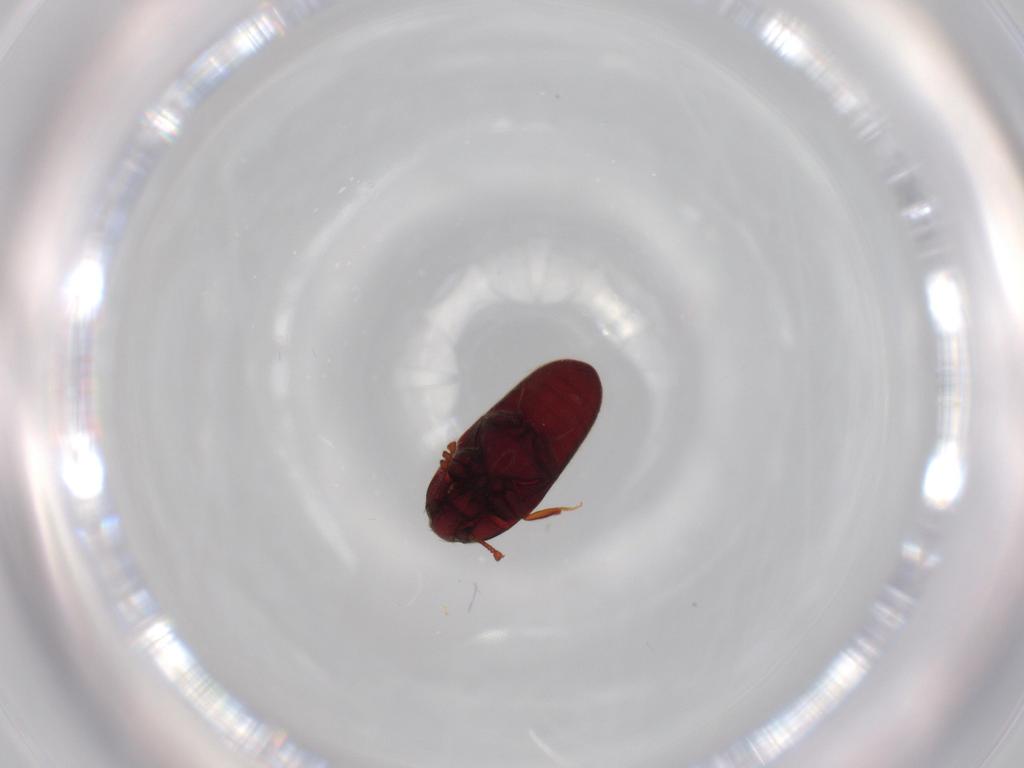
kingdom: Animalia
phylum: Arthropoda
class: Insecta
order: Coleoptera
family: Throscidae
